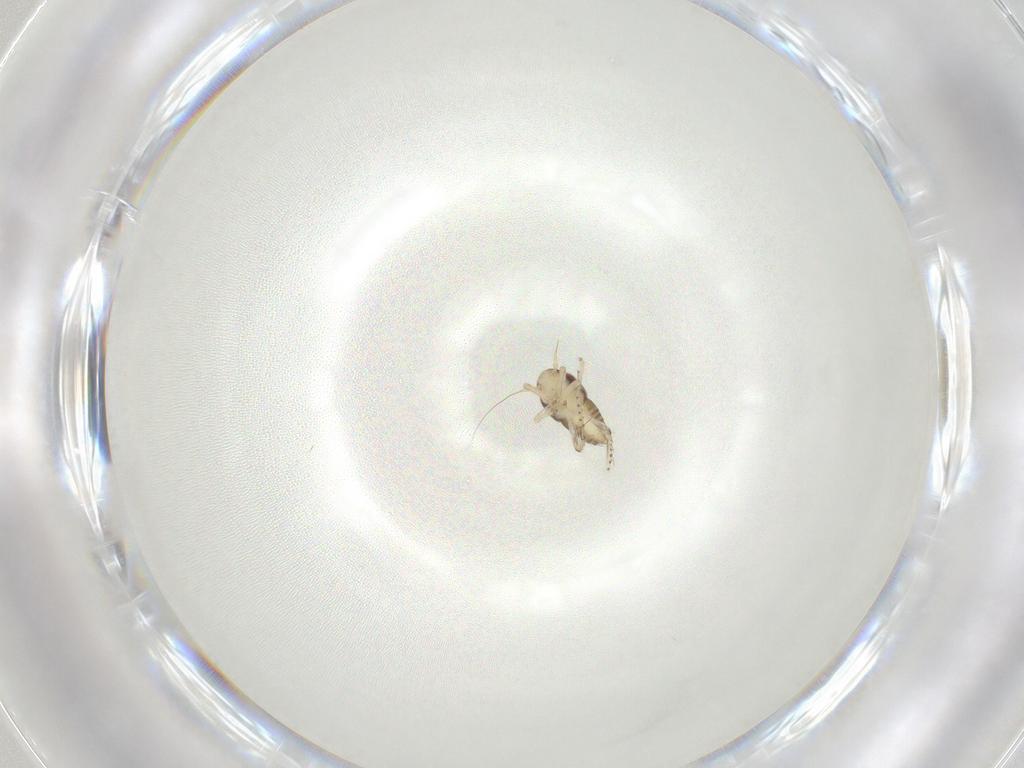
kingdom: Animalia
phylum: Arthropoda
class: Insecta
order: Hemiptera
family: Cicadellidae
